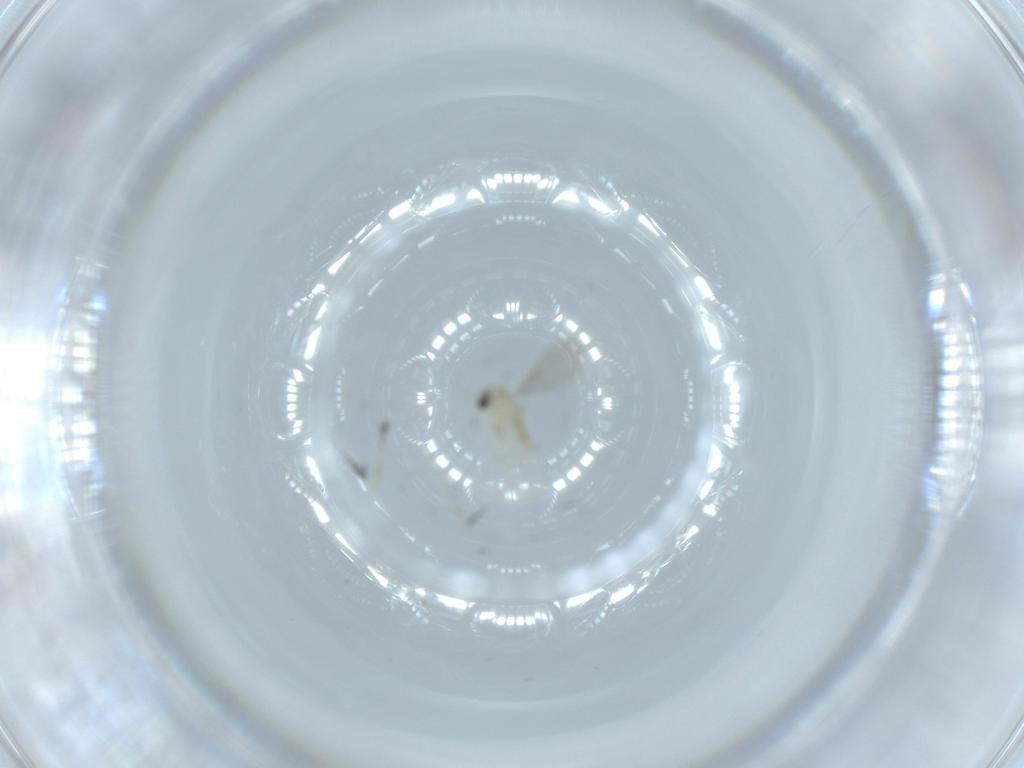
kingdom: Animalia
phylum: Arthropoda
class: Insecta
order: Diptera
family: Cecidomyiidae
